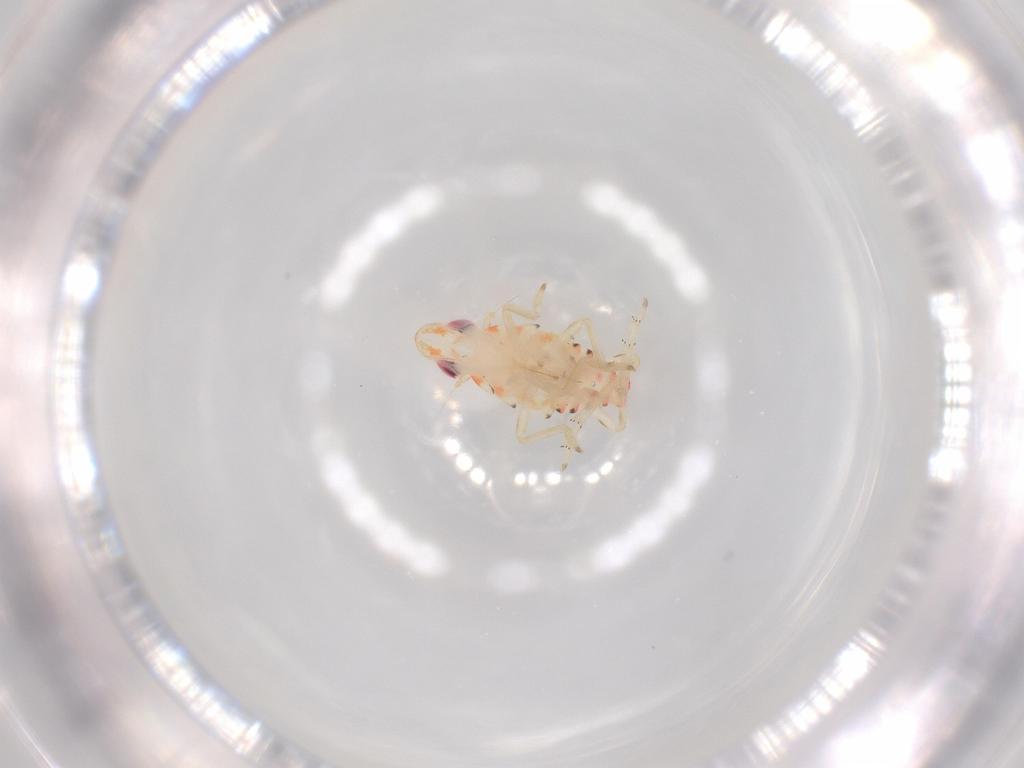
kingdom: Animalia
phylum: Arthropoda
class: Insecta
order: Hemiptera
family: Tropiduchidae
